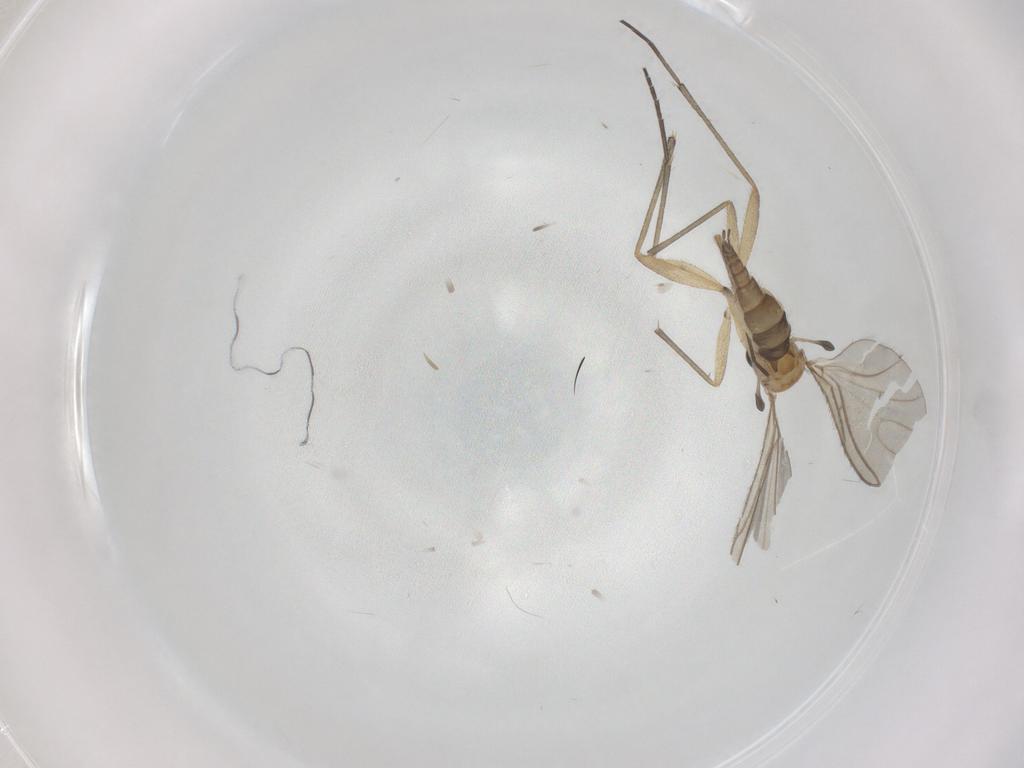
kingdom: Animalia
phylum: Arthropoda
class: Insecta
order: Diptera
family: Sciaridae
